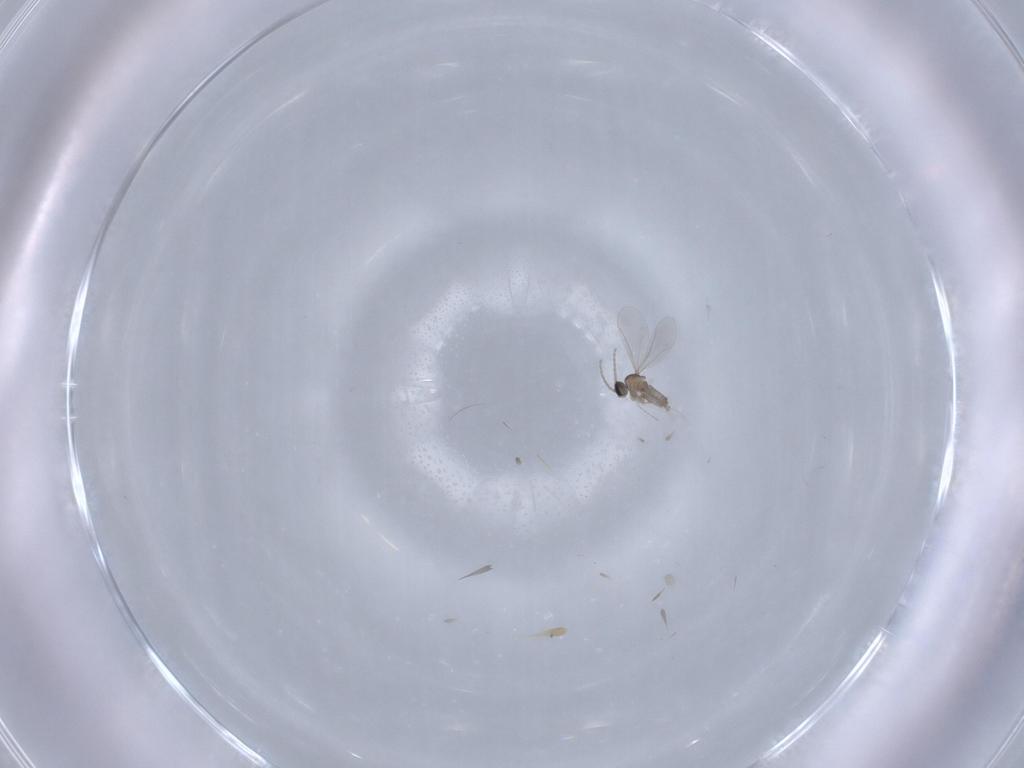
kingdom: Animalia
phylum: Arthropoda
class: Insecta
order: Diptera
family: Cecidomyiidae
